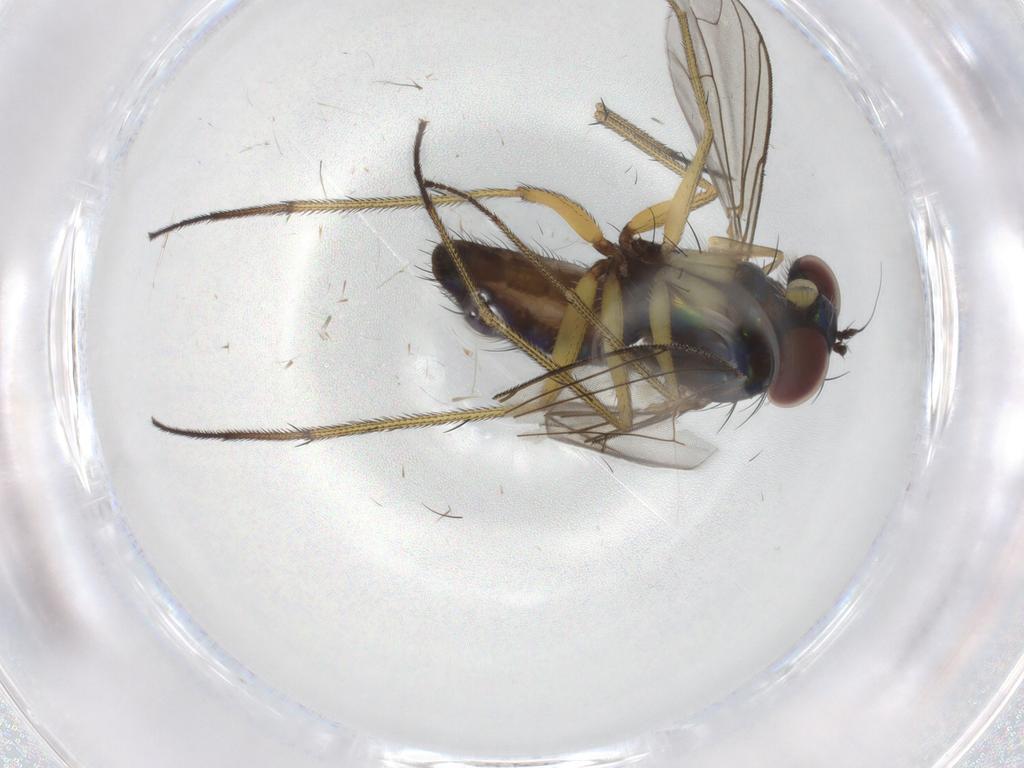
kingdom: Animalia
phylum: Arthropoda
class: Insecta
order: Diptera
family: Dolichopodidae
